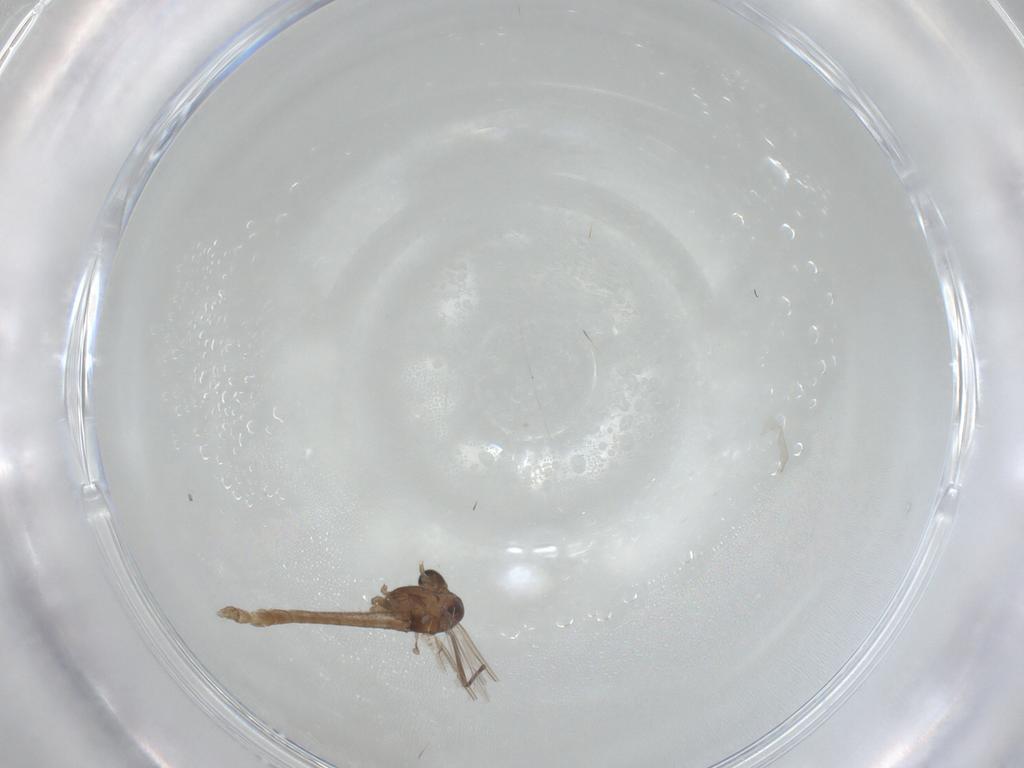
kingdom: Animalia
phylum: Arthropoda
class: Insecta
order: Diptera
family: Chironomidae
